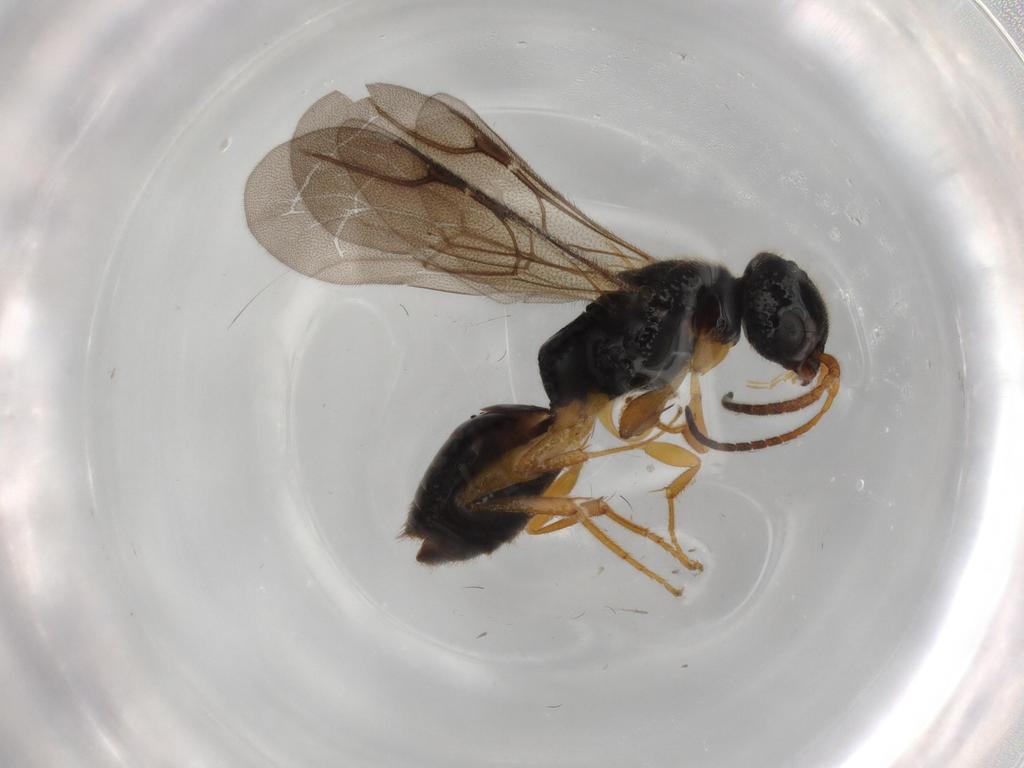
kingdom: Animalia
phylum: Arthropoda
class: Insecta
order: Hymenoptera
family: Bethylidae
